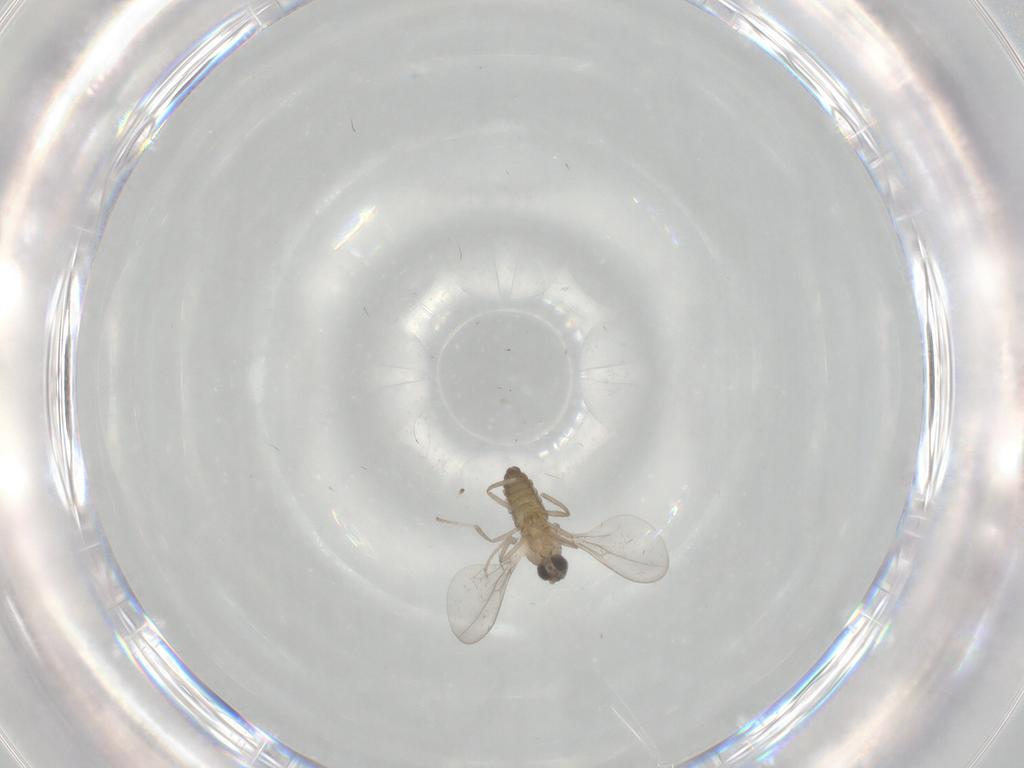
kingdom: Animalia
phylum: Arthropoda
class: Insecta
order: Diptera
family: Cecidomyiidae
